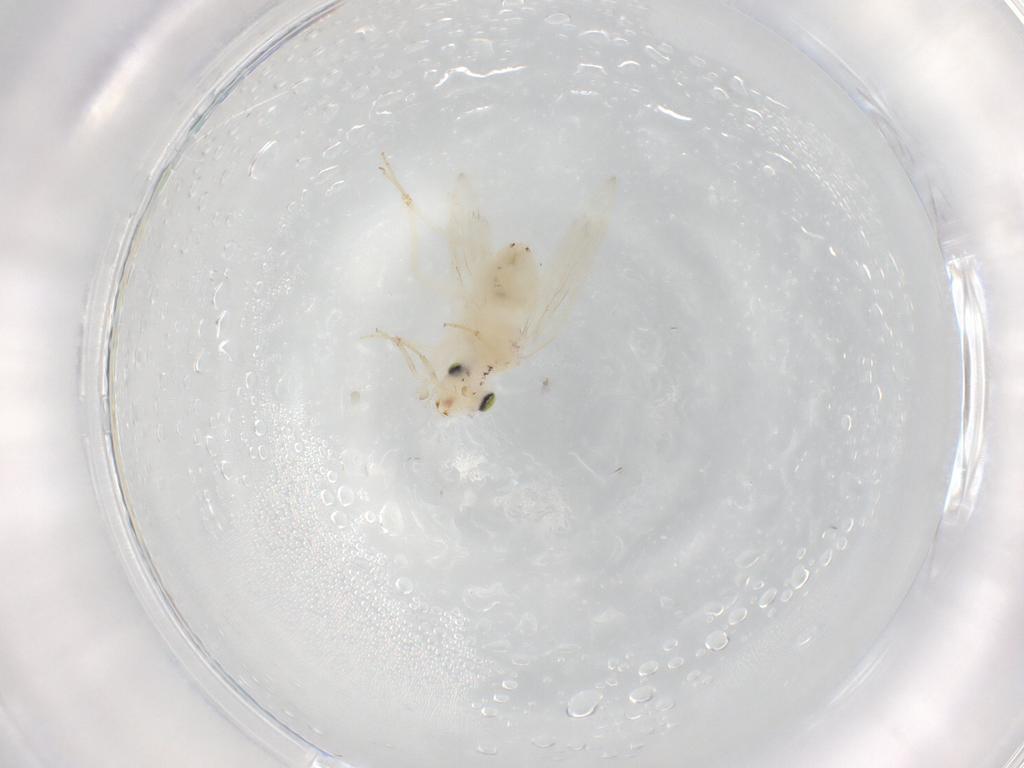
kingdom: Animalia
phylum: Arthropoda
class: Insecta
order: Psocodea
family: Lepidopsocidae
